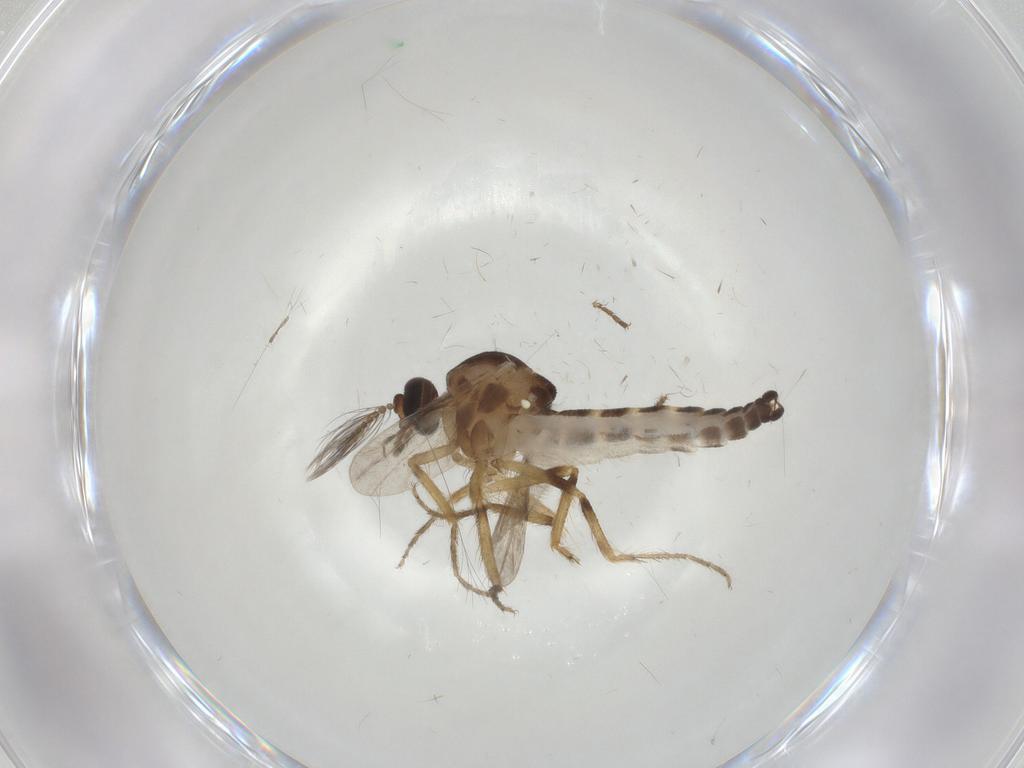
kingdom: Animalia
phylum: Arthropoda
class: Insecta
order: Diptera
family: Ceratopogonidae
